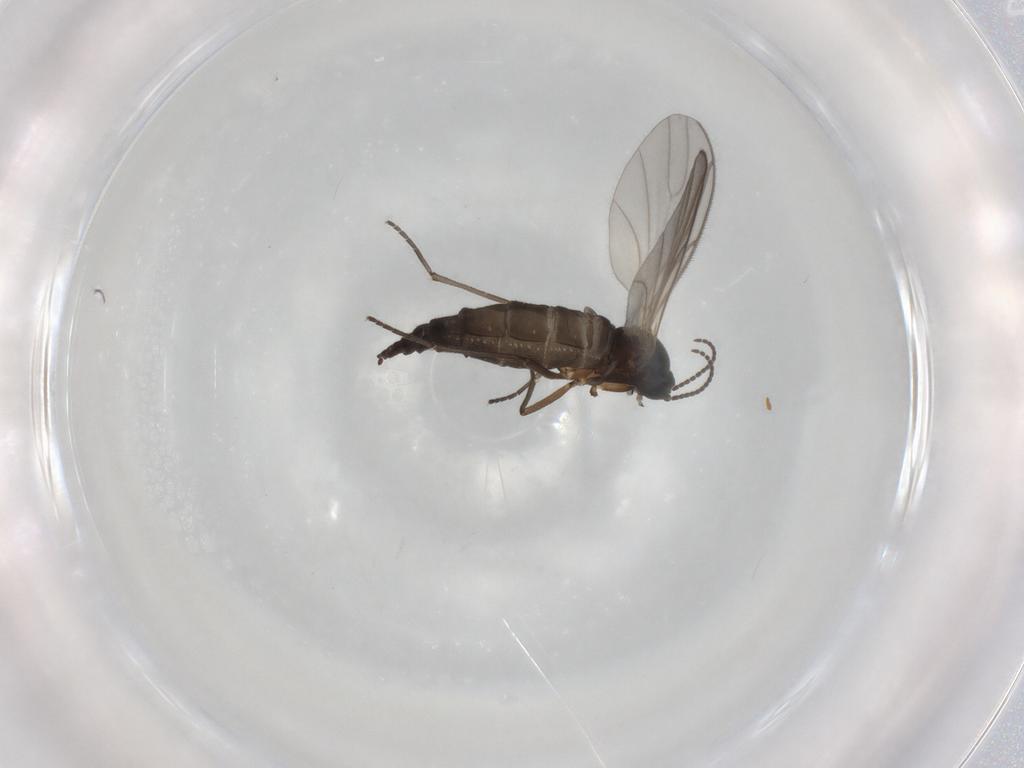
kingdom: Animalia
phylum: Arthropoda
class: Insecta
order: Diptera
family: Sciaridae
